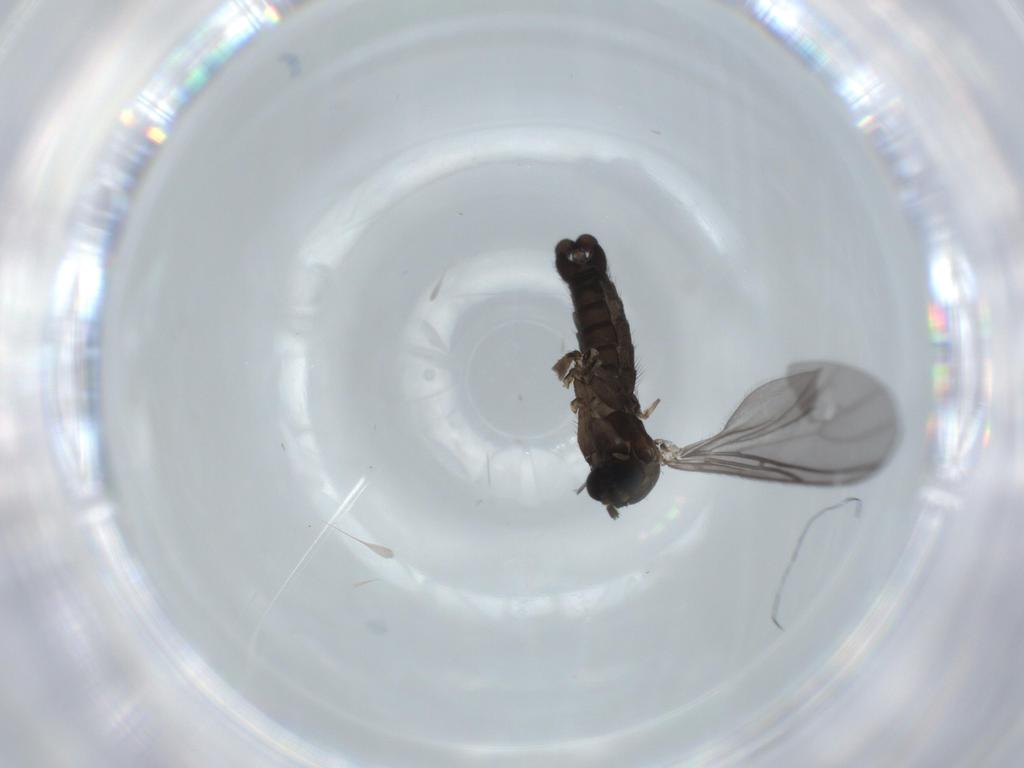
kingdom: Animalia
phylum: Arthropoda
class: Insecta
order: Diptera
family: Sciaridae
